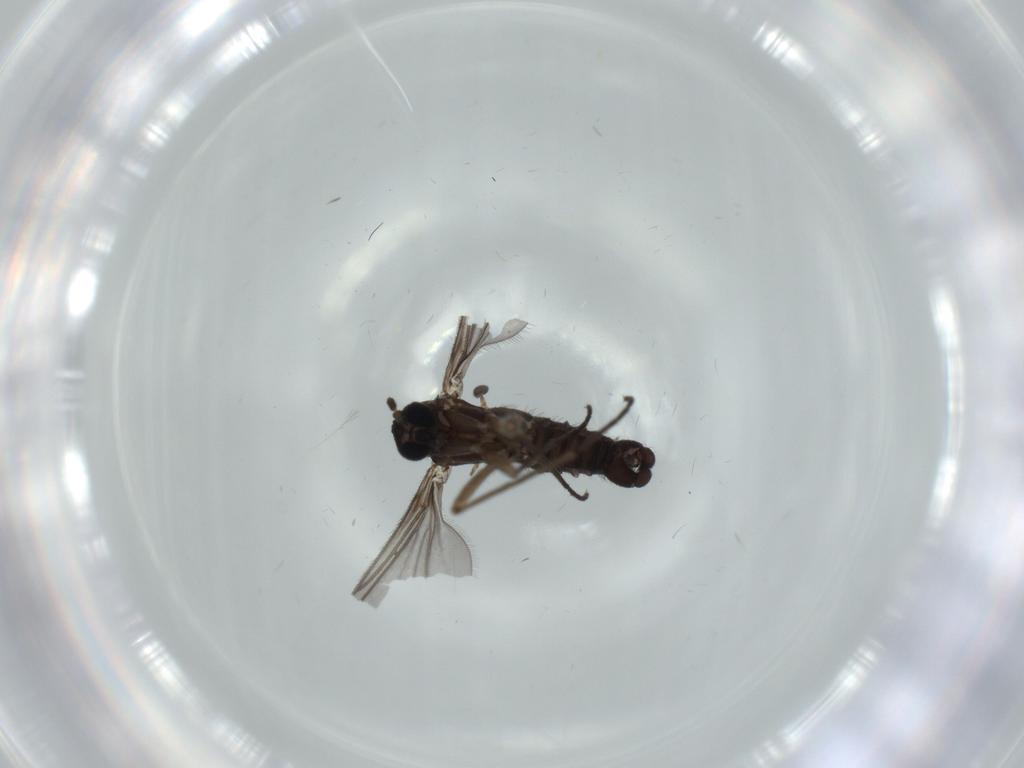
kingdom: Animalia
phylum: Arthropoda
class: Insecta
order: Diptera
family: Sciaridae
